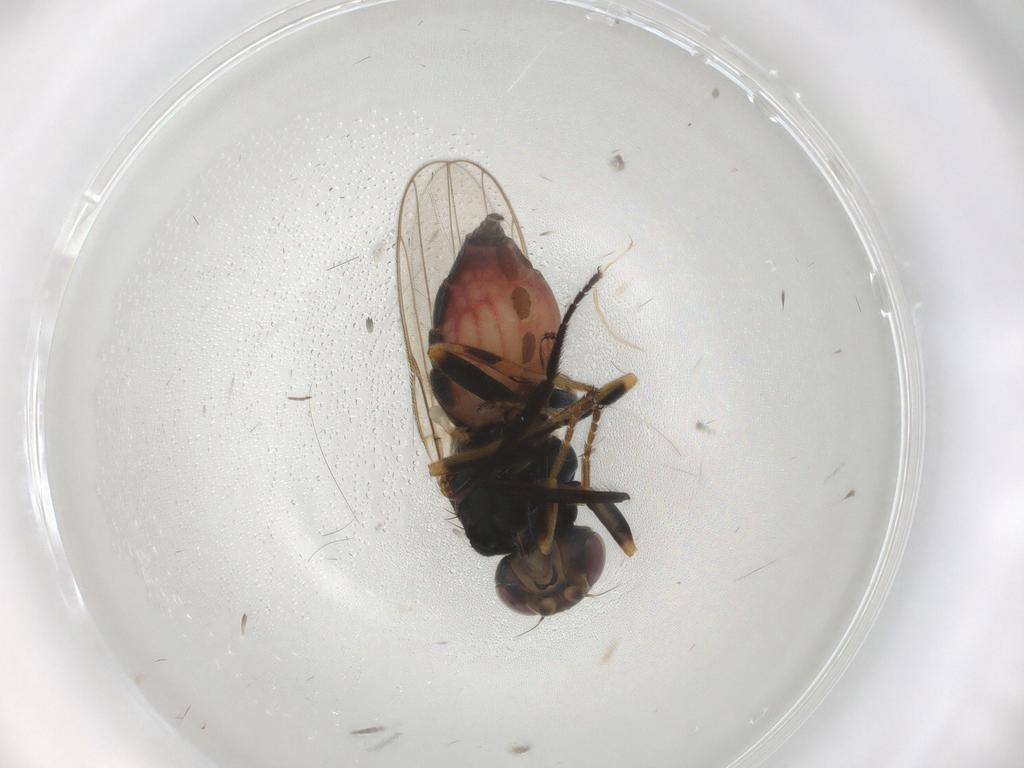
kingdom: Animalia
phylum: Arthropoda
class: Insecta
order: Diptera
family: Chloropidae
